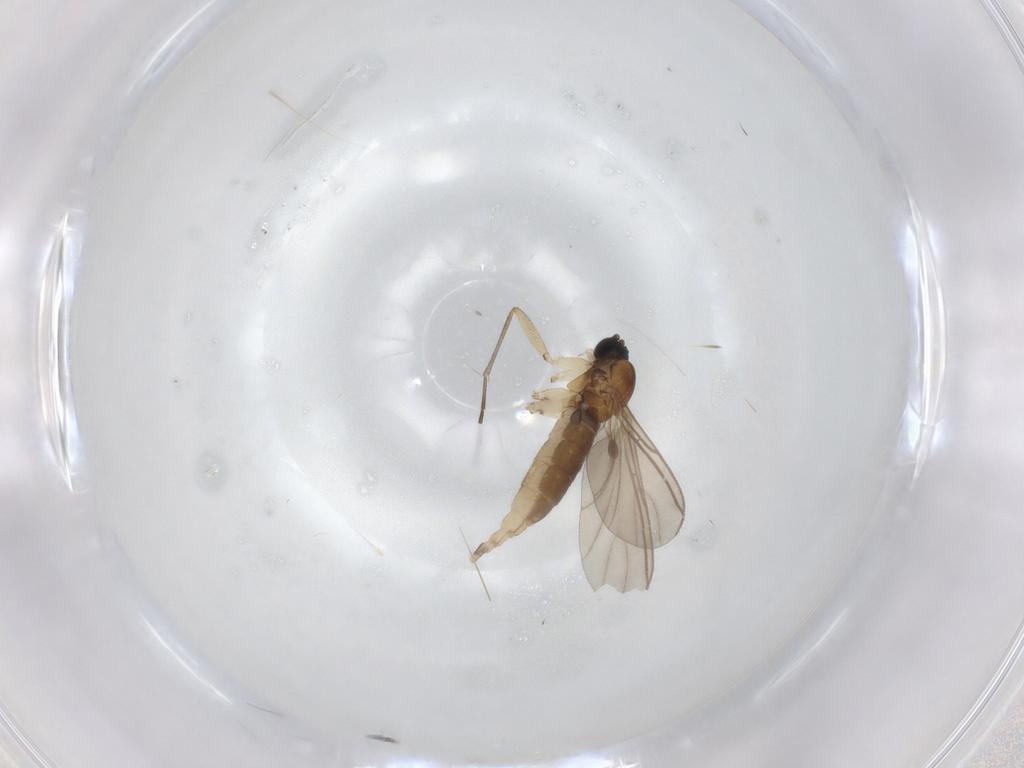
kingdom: Animalia
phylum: Arthropoda
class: Insecta
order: Diptera
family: Sciaridae
